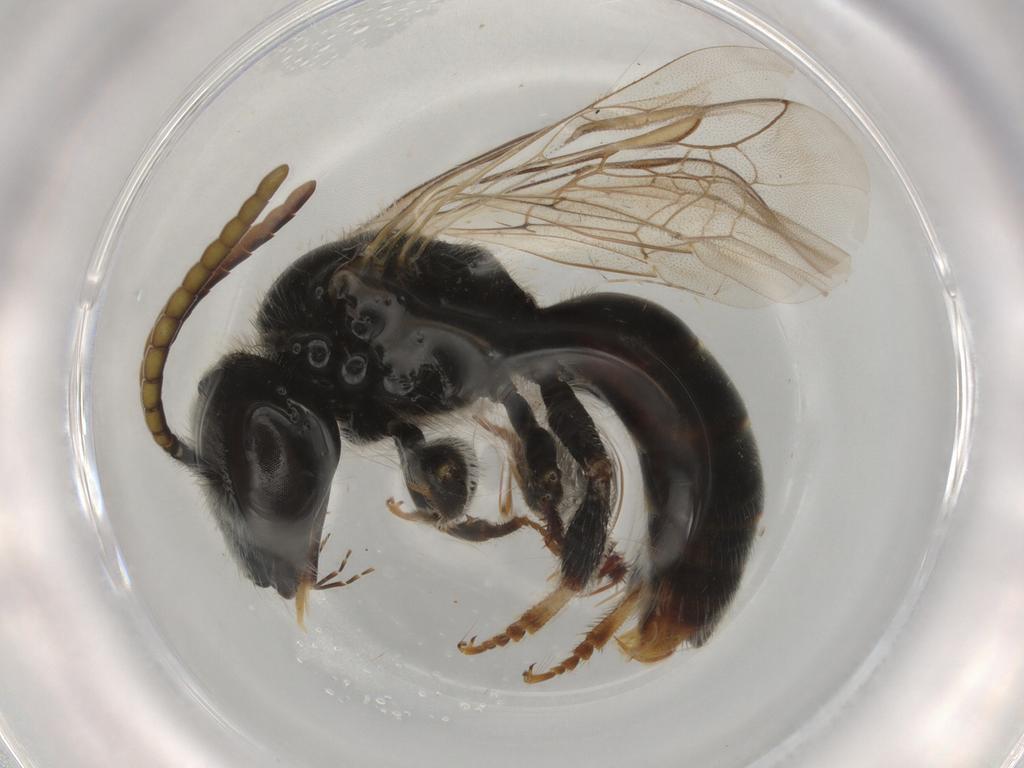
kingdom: Animalia
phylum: Arthropoda
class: Insecta
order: Hymenoptera
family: Formicidae
